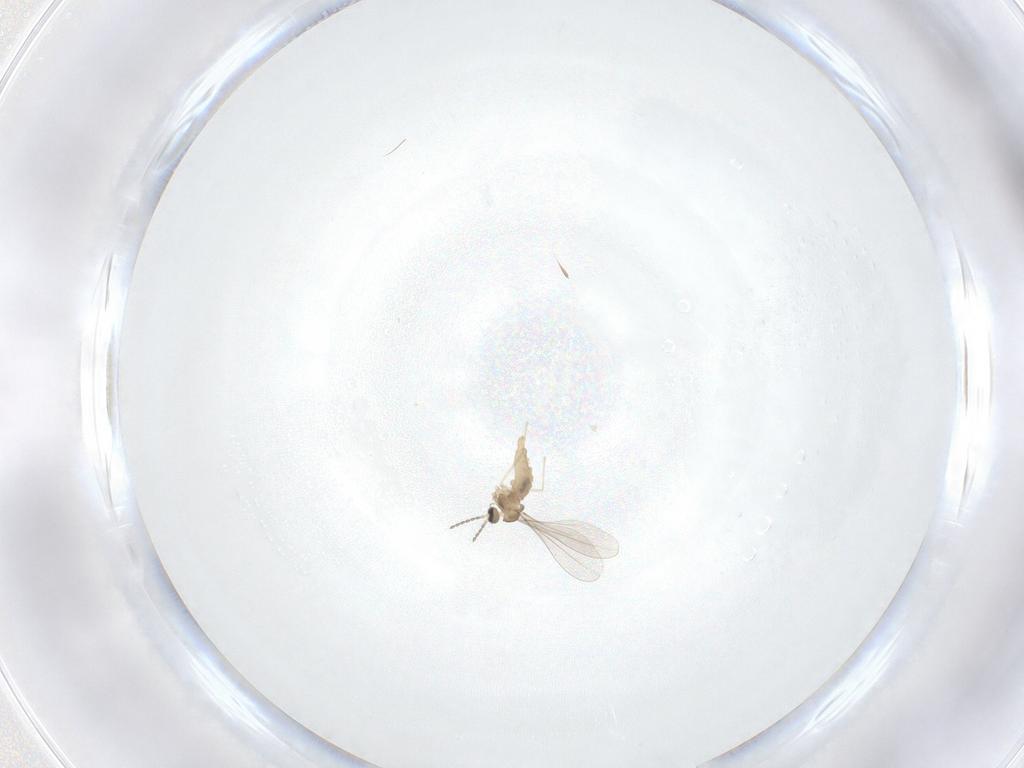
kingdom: Animalia
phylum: Arthropoda
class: Insecta
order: Diptera
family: Cecidomyiidae
